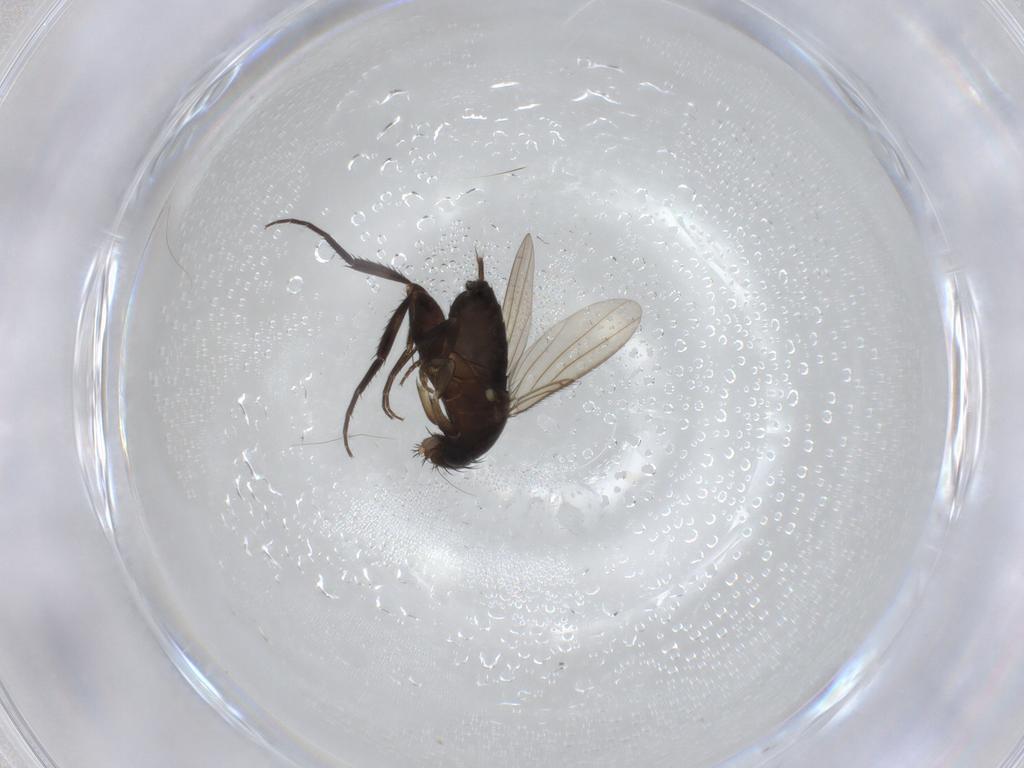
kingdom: Animalia
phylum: Arthropoda
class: Insecta
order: Diptera
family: Phoridae
